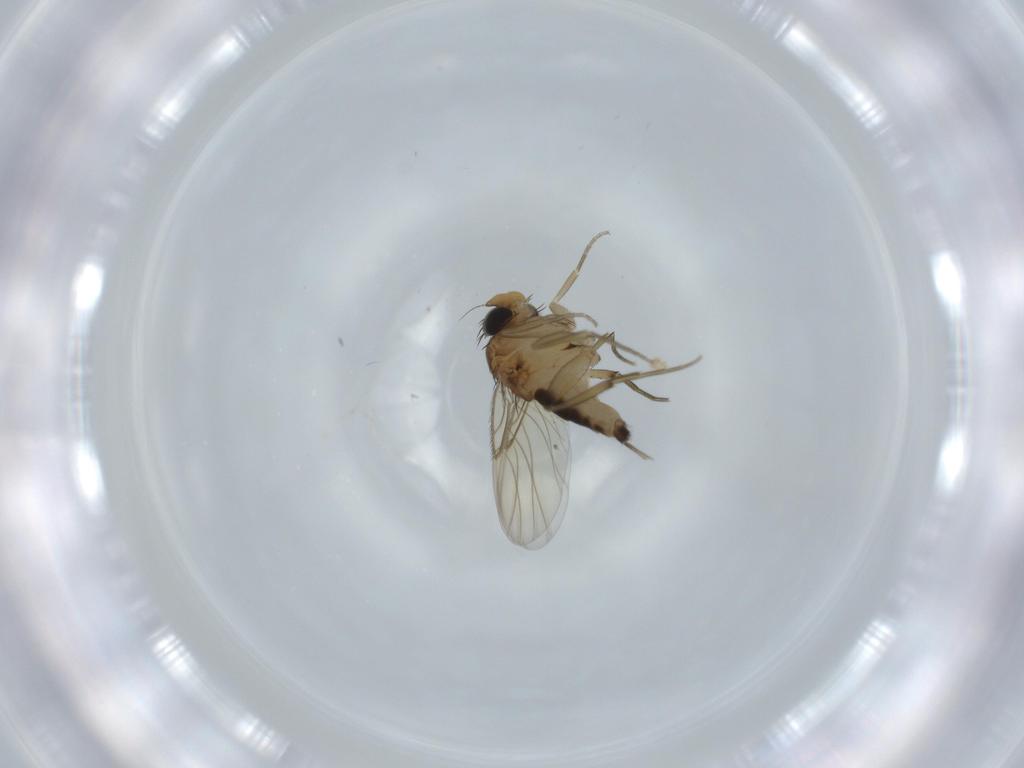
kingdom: Animalia
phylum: Arthropoda
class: Insecta
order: Diptera
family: Cecidomyiidae
